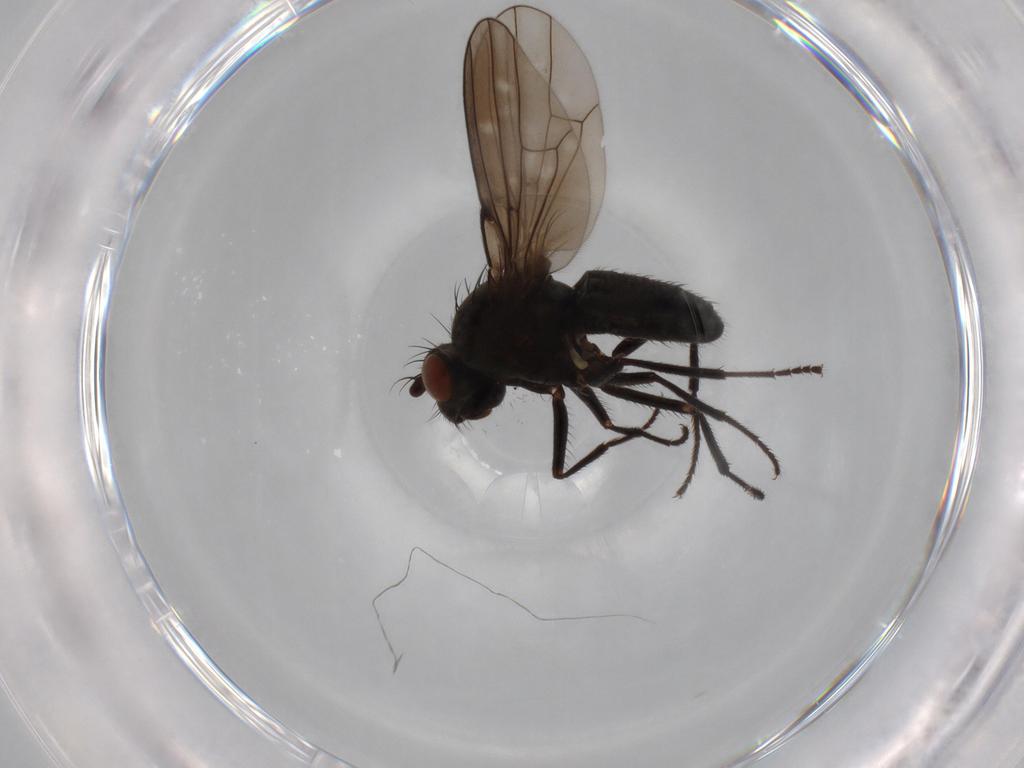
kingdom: Animalia
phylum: Arthropoda
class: Insecta
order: Diptera
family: Ephydridae
